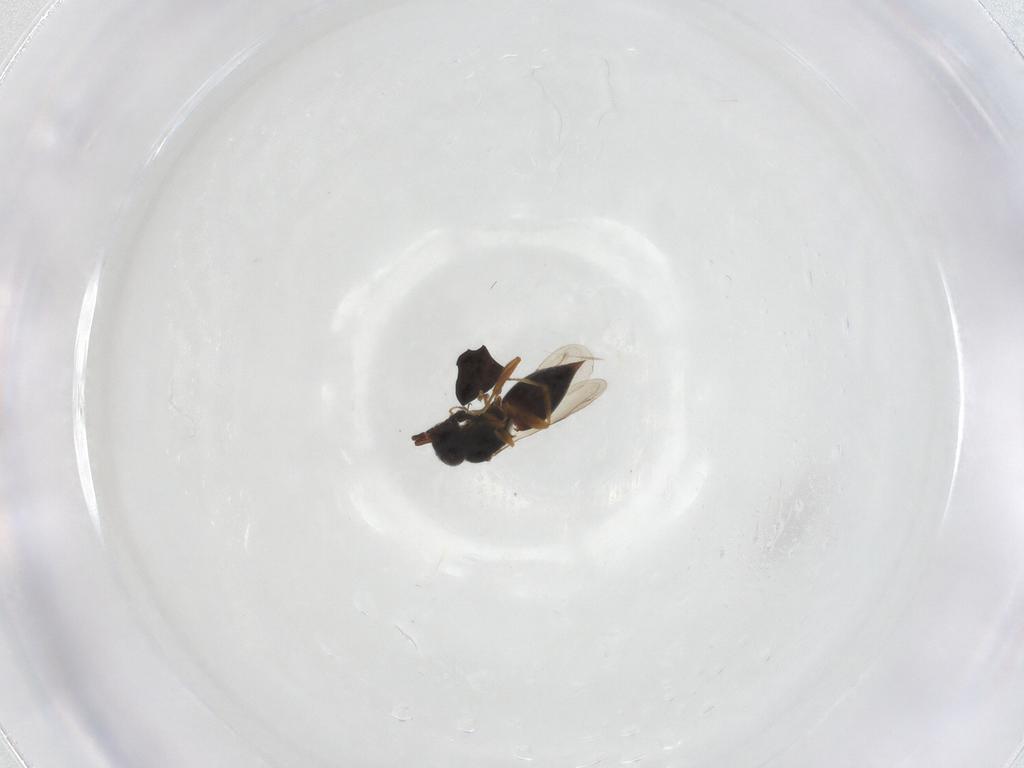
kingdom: Animalia
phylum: Arthropoda
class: Insecta
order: Hymenoptera
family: Halictidae
